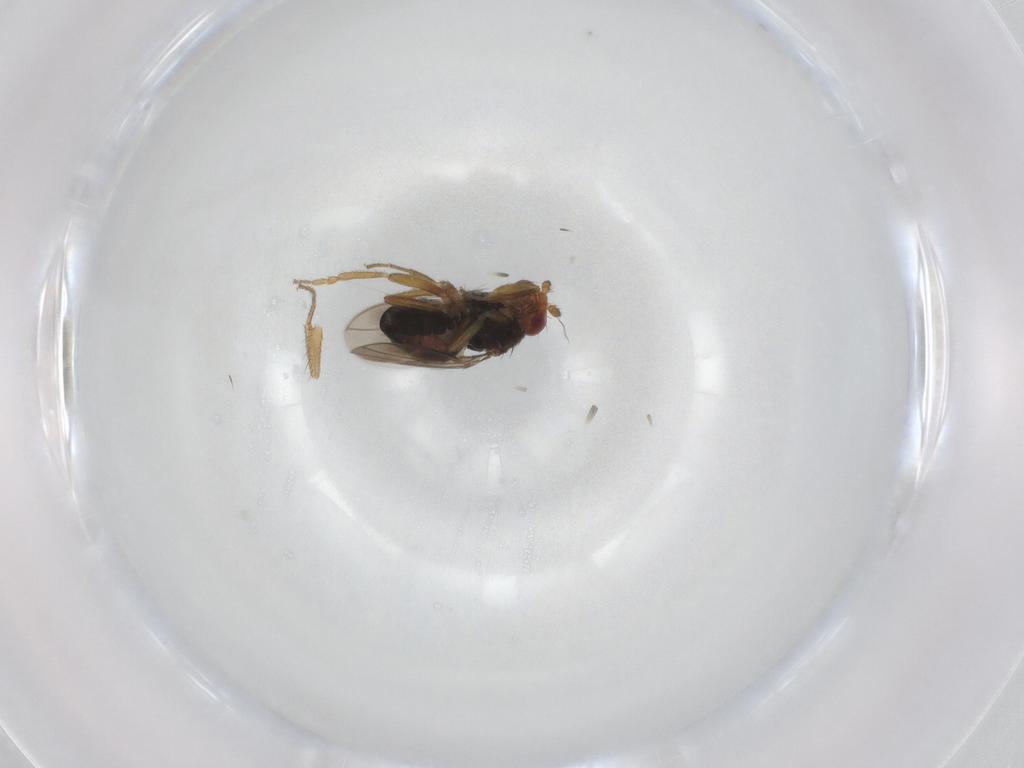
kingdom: Animalia
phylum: Arthropoda
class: Insecta
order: Diptera
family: Sphaeroceridae
